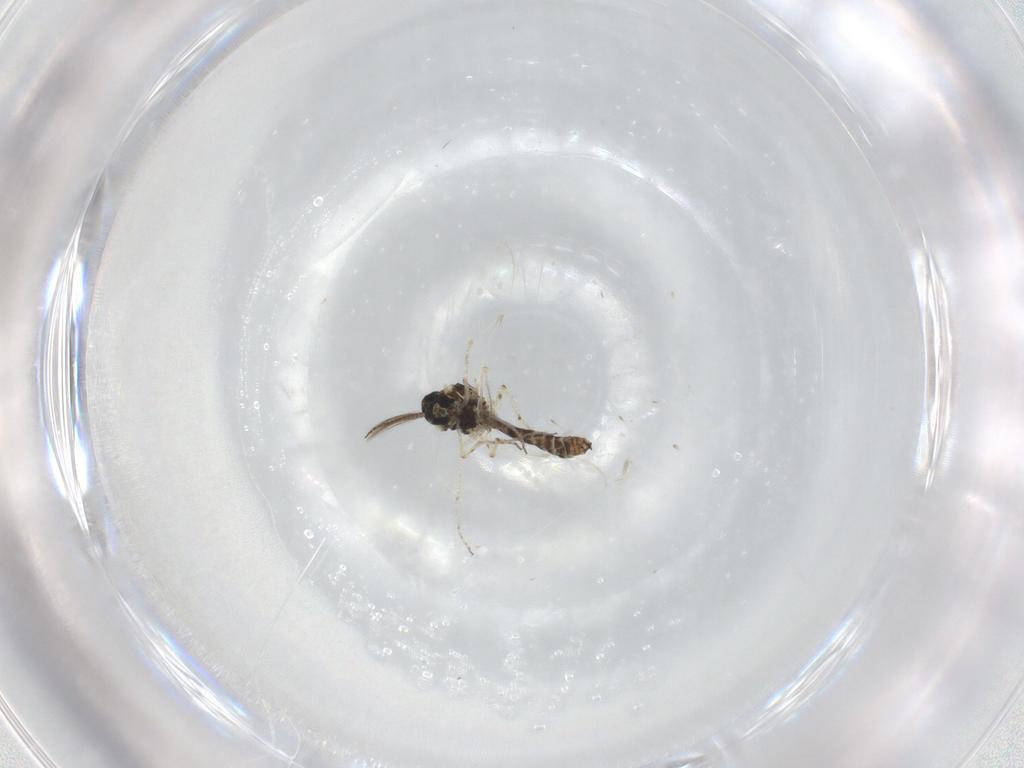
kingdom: Animalia
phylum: Arthropoda
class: Insecta
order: Diptera
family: Ceratopogonidae
